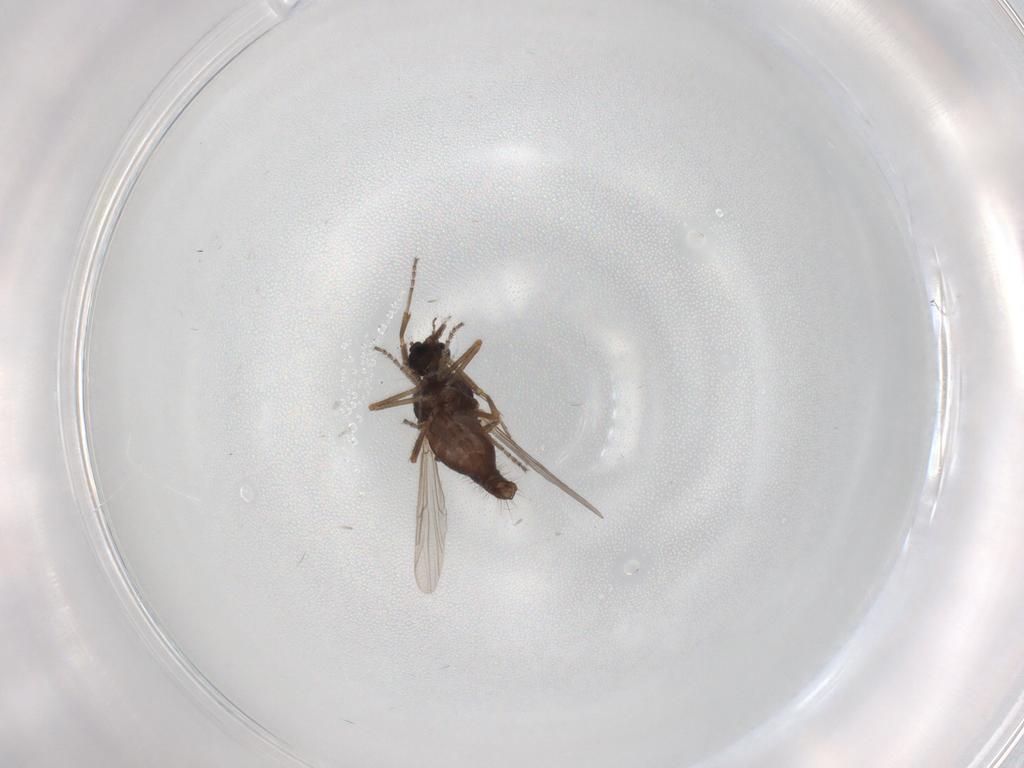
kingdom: Animalia
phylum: Arthropoda
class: Insecta
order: Diptera
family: Ceratopogonidae
